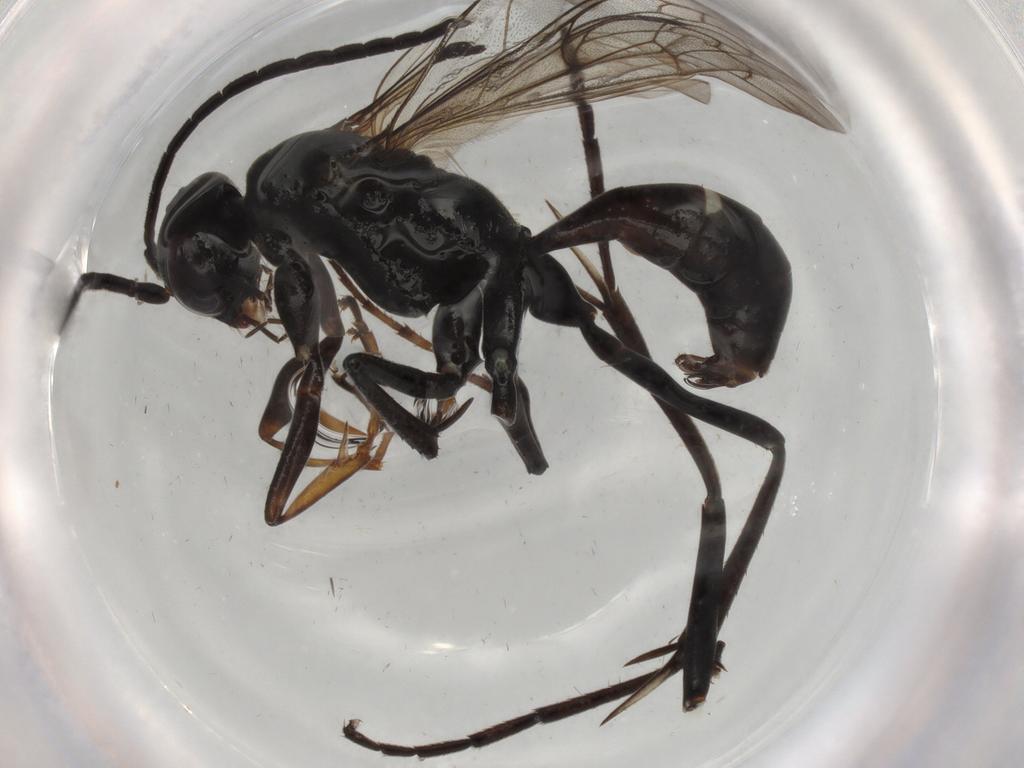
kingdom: Animalia
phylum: Arthropoda
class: Insecta
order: Hymenoptera
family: Pompilidae
